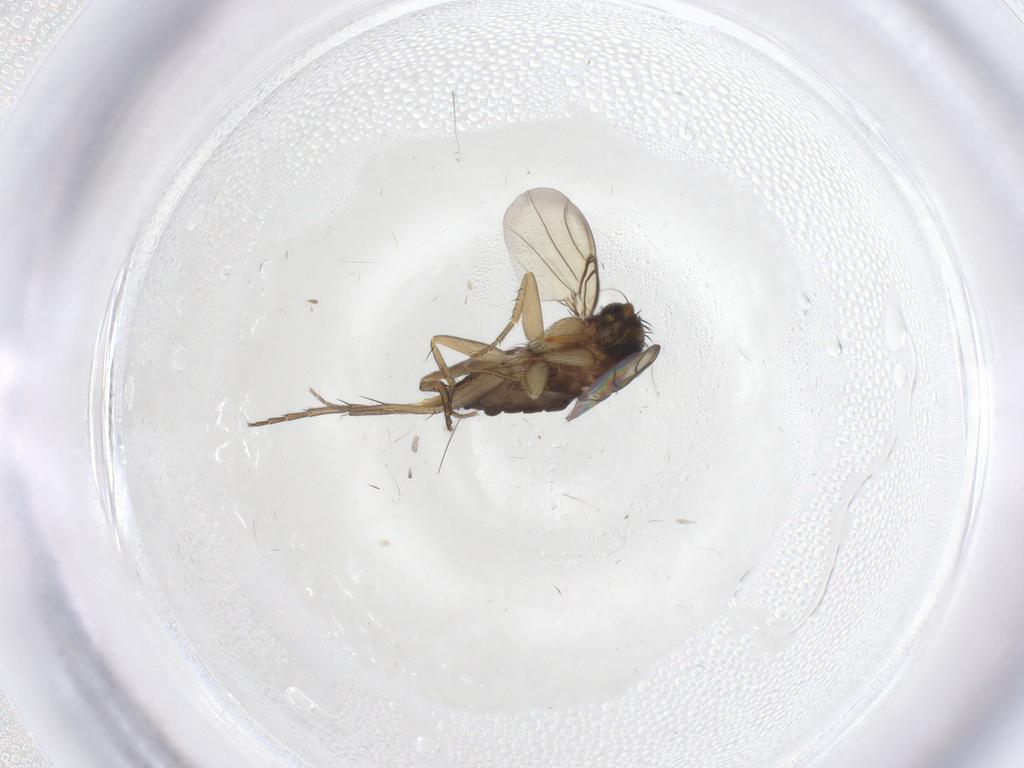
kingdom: Animalia
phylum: Arthropoda
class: Insecta
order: Diptera
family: Phoridae
